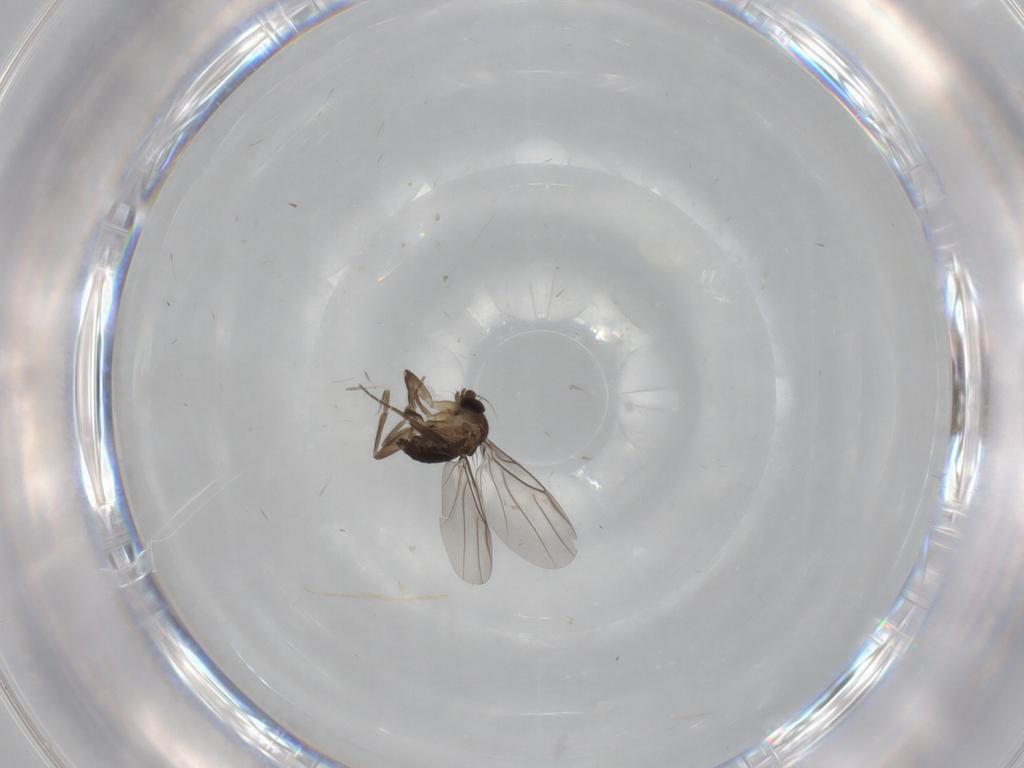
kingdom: Animalia
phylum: Arthropoda
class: Insecta
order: Diptera
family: Phoridae
